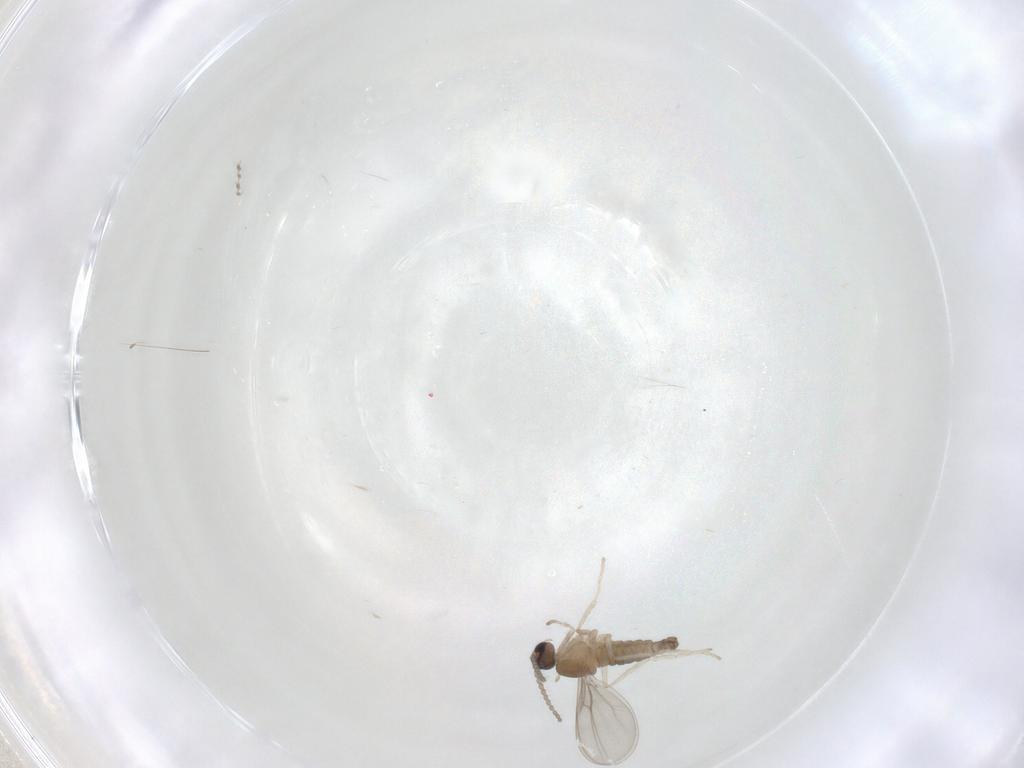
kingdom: Animalia
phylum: Arthropoda
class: Insecta
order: Diptera
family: Cecidomyiidae
